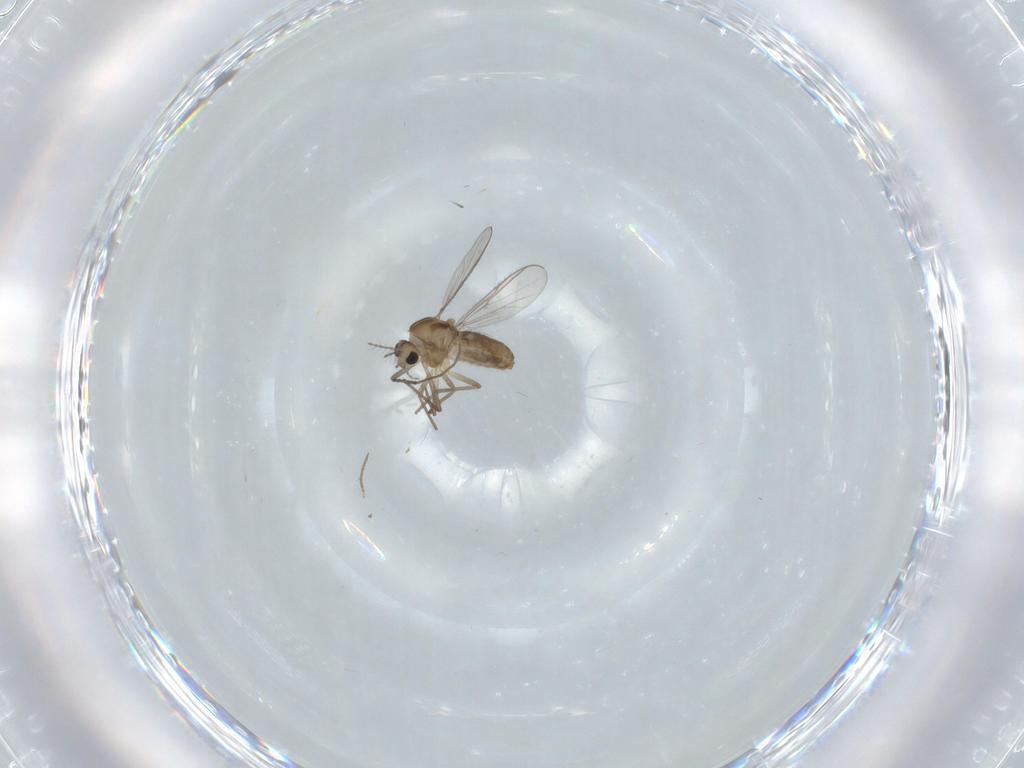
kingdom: Animalia
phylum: Arthropoda
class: Insecta
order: Diptera
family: Chironomidae
